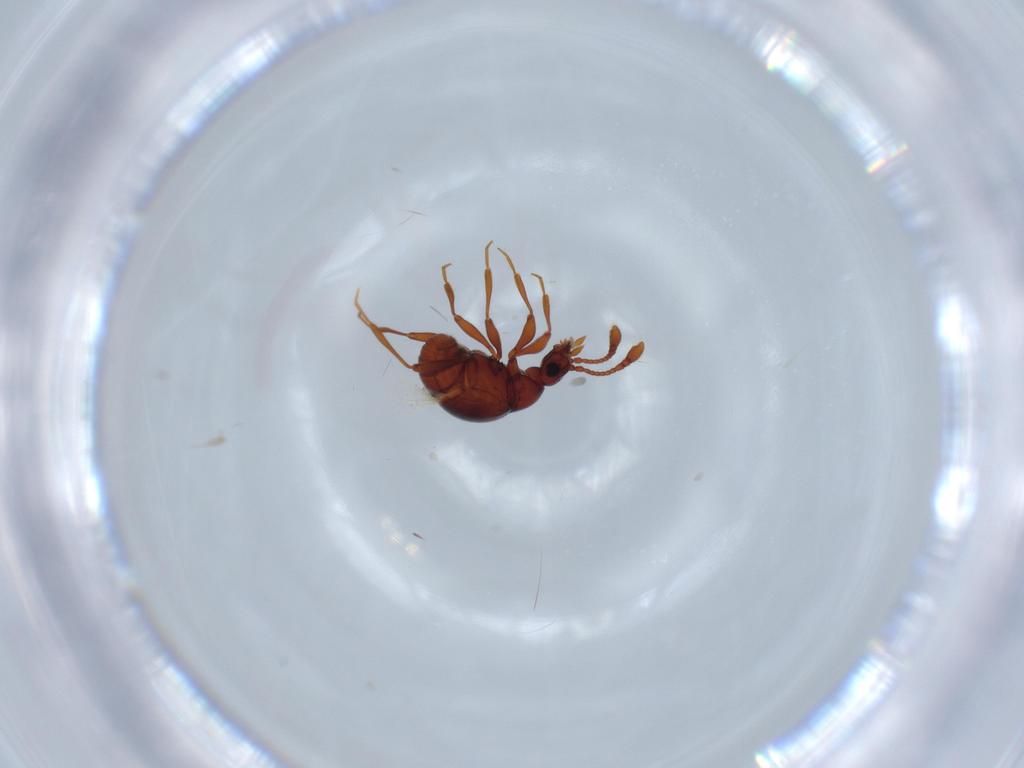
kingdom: Animalia
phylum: Arthropoda
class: Insecta
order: Coleoptera
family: Staphylinidae
